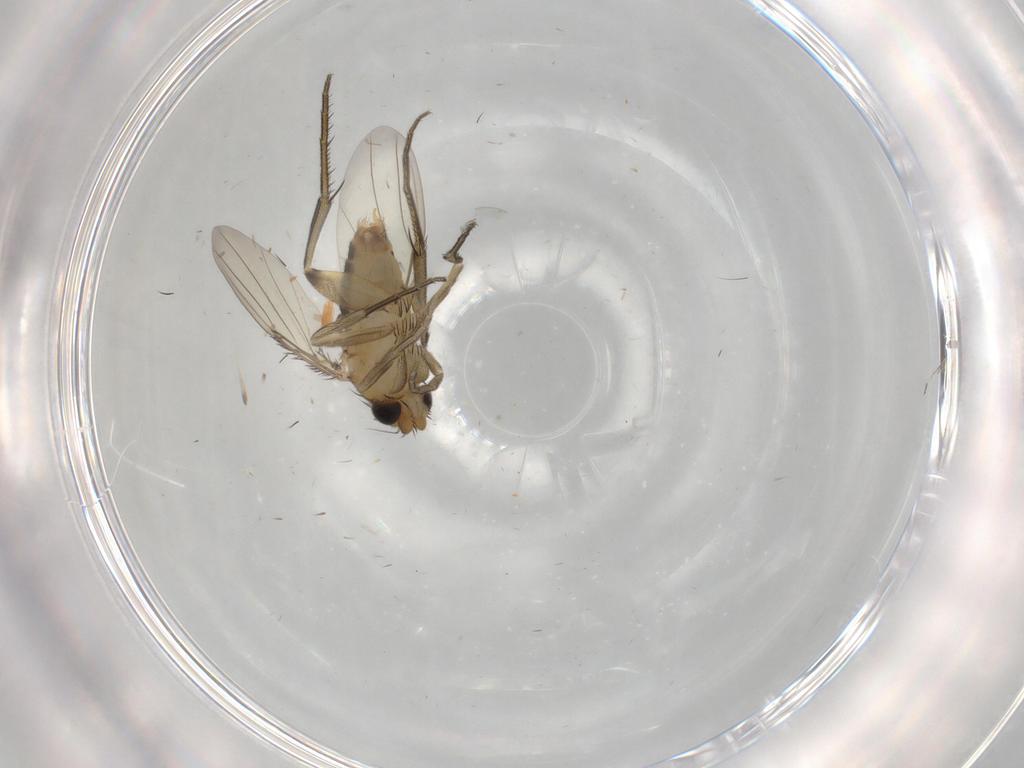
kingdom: Animalia
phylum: Arthropoda
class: Insecta
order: Diptera
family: Phoridae
